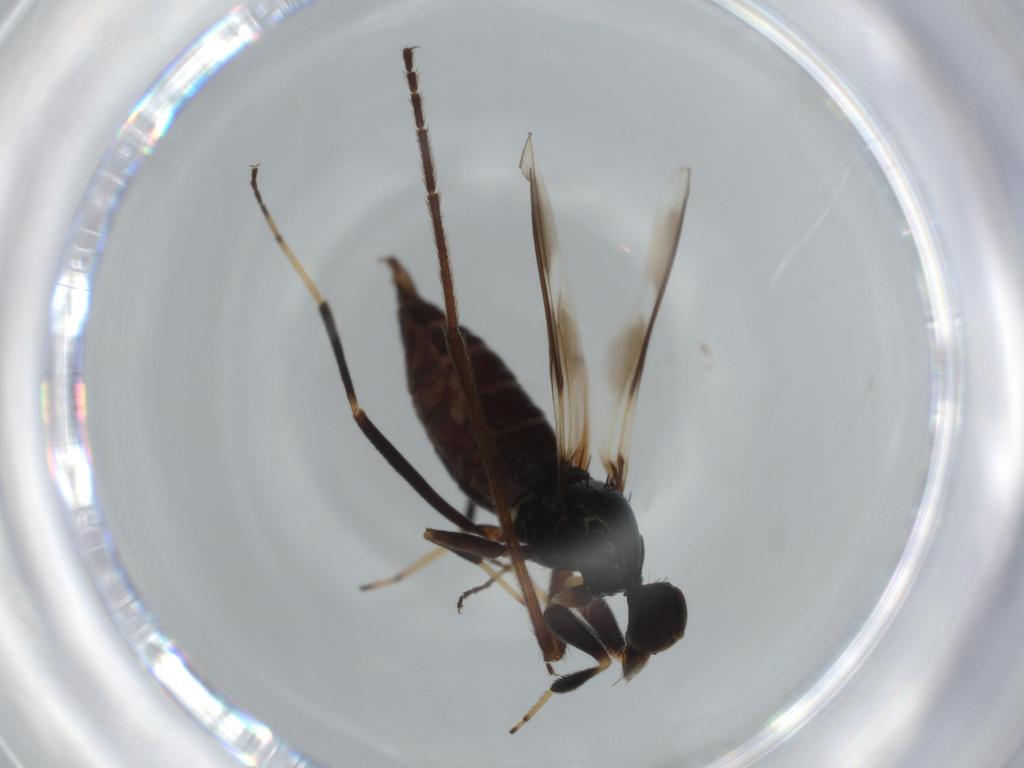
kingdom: Animalia
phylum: Arthropoda
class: Insecta
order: Diptera
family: Chironomidae
